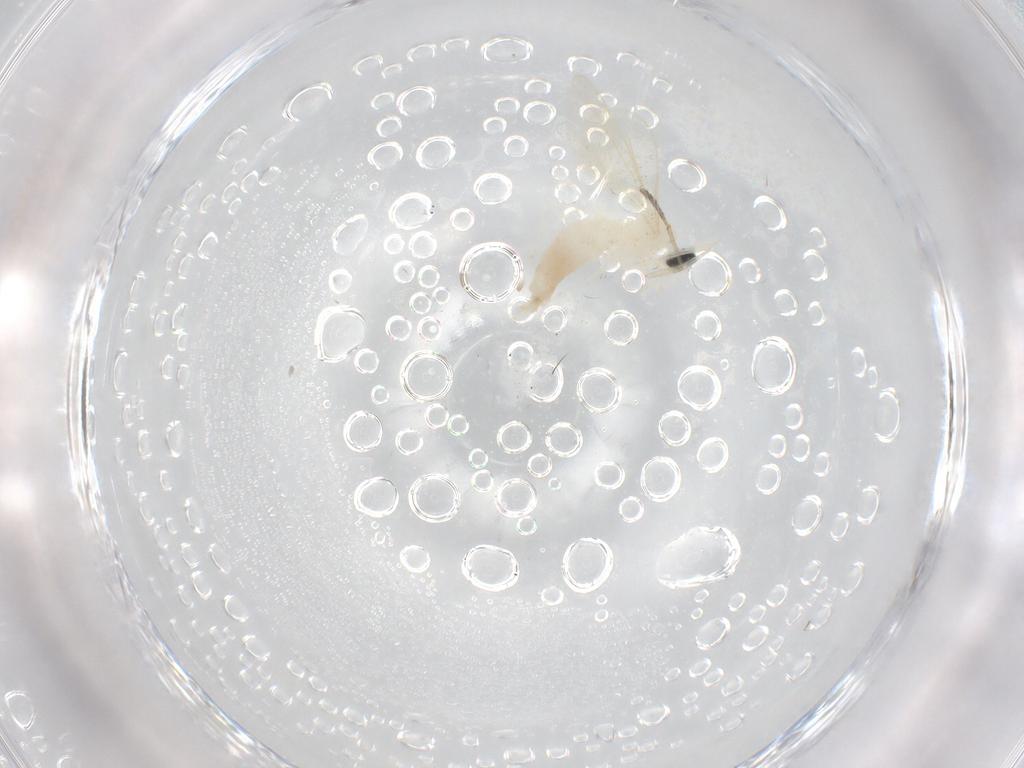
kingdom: Animalia
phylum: Arthropoda
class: Insecta
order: Diptera
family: Cecidomyiidae
